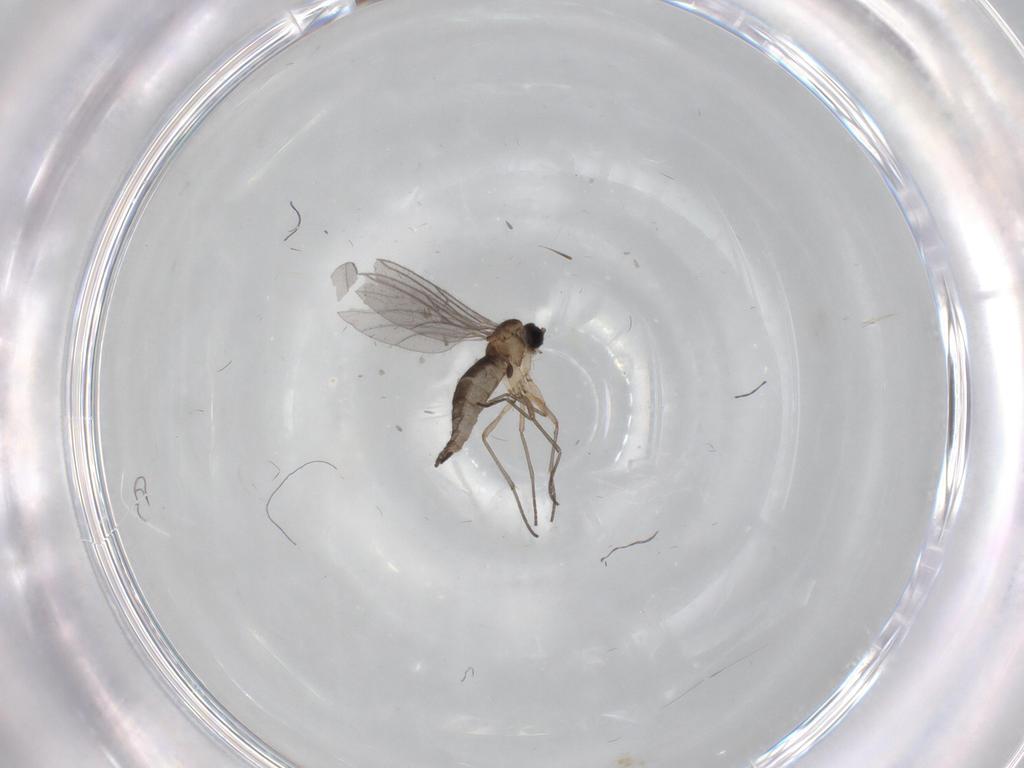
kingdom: Animalia
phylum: Arthropoda
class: Insecta
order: Diptera
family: Sciaridae
